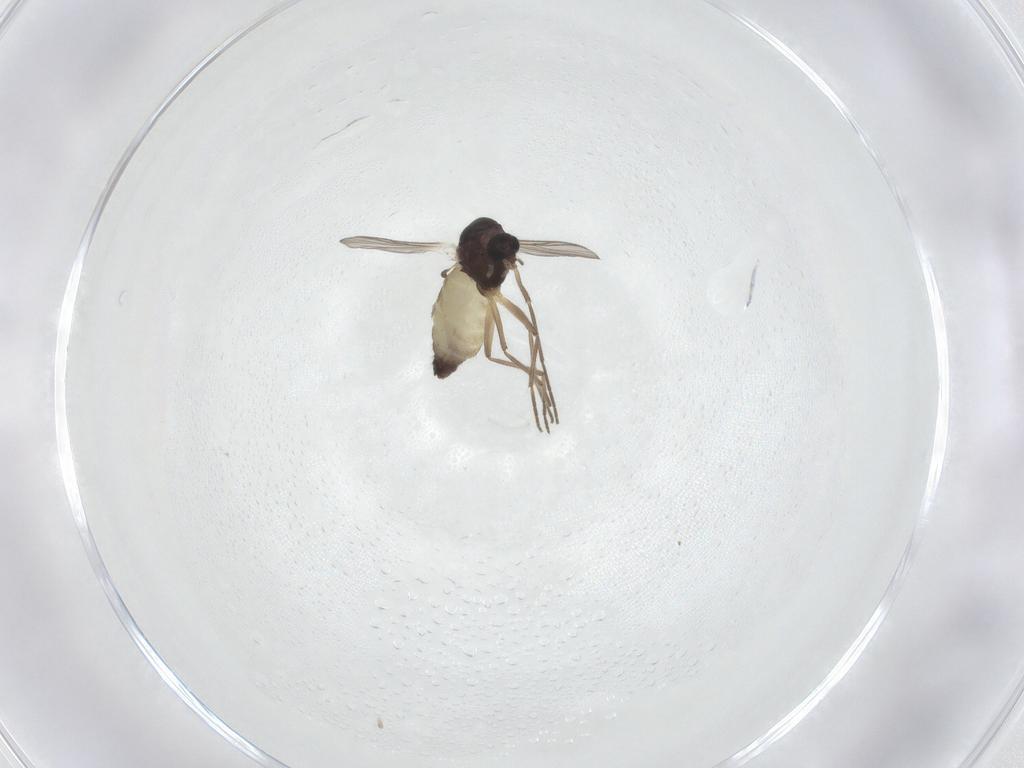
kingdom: Animalia
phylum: Arthropoda
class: Insecta
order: Diptera
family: Chironomidae
